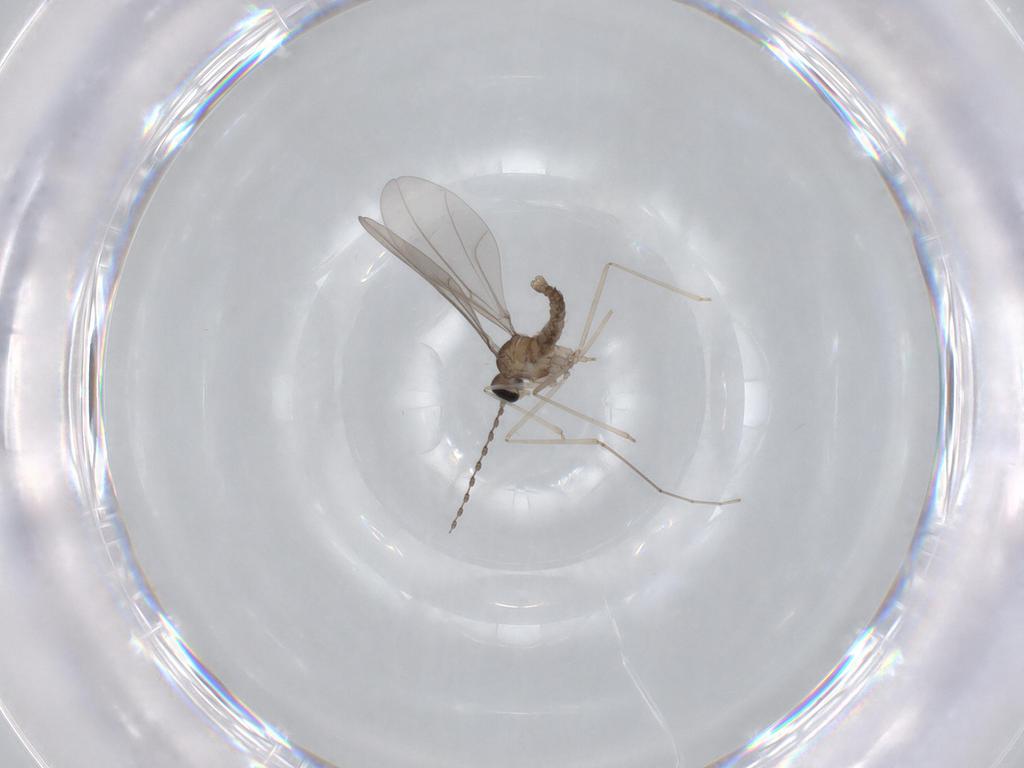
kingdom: Animalia
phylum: Arthropoda
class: Insecta
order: Diptera
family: Cecidomyiidae
